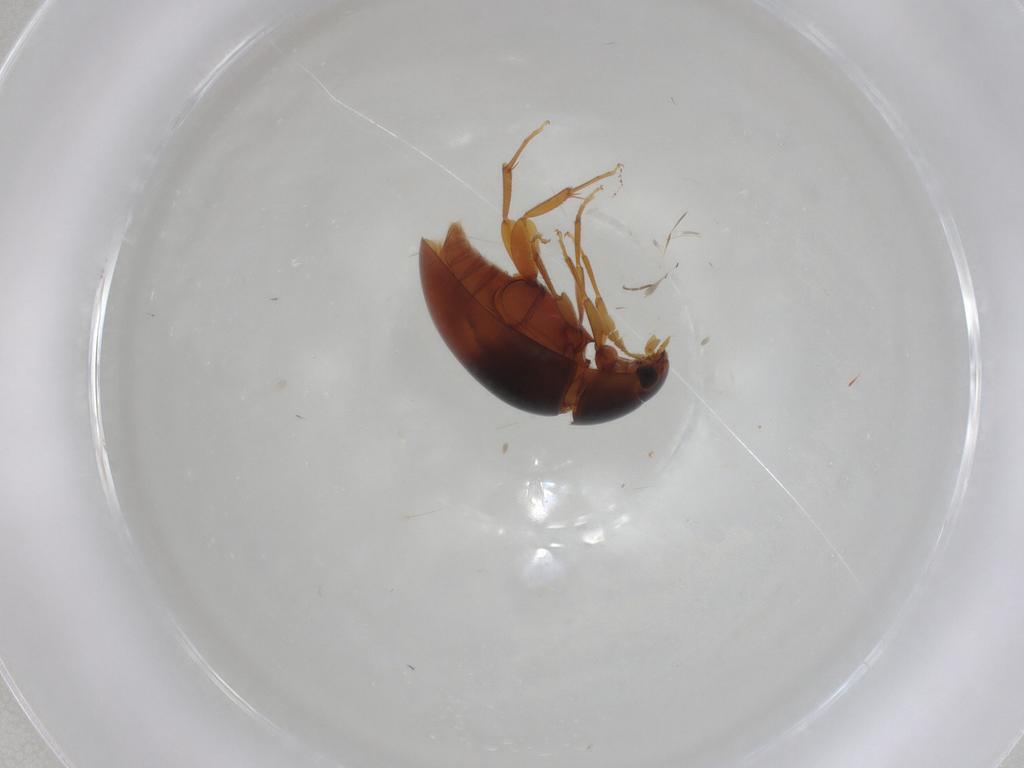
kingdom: Animalia
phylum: Arthropoda
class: Insecta
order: Coleoptera
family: Phalacridae
